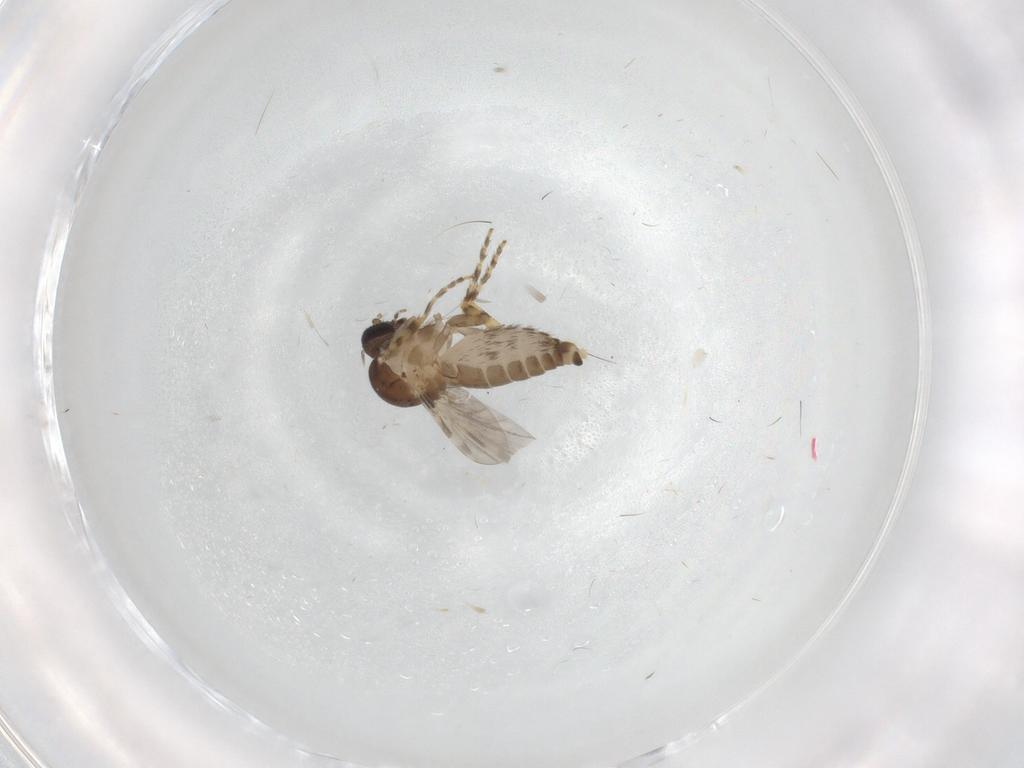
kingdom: Animalia
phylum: Arthropoda
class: Insecta
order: Diptera
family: Ceratopogonidae
